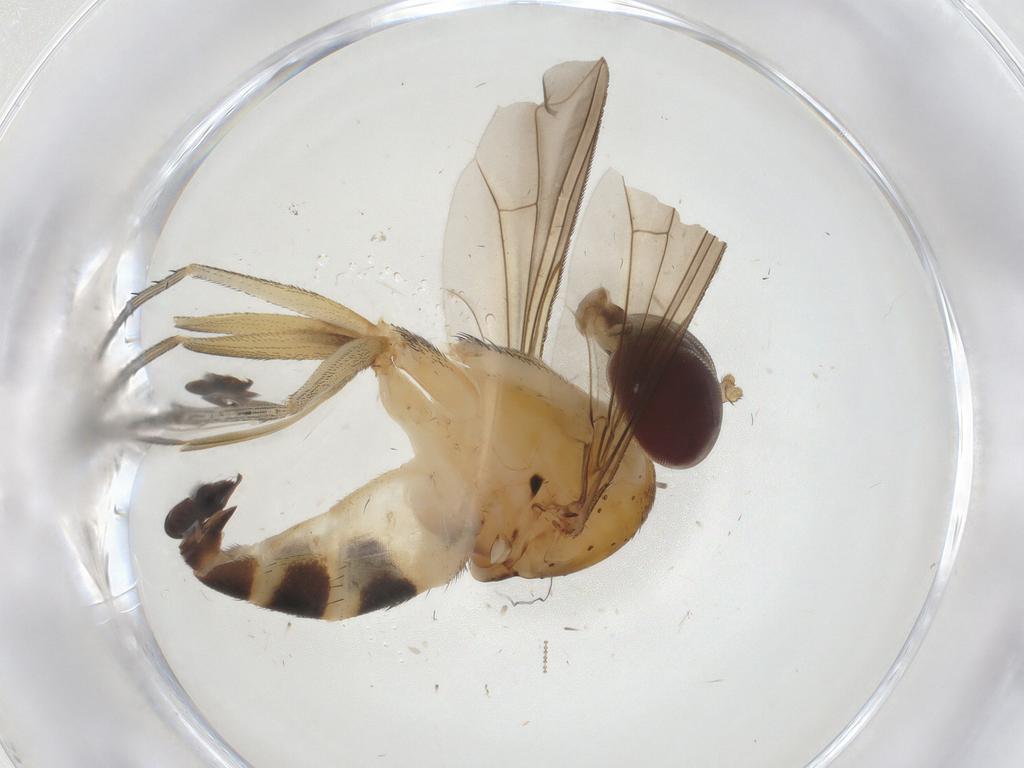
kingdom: Animalia
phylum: Arthropoda
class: Insecta
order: Diptera
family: Dolichopodidae
